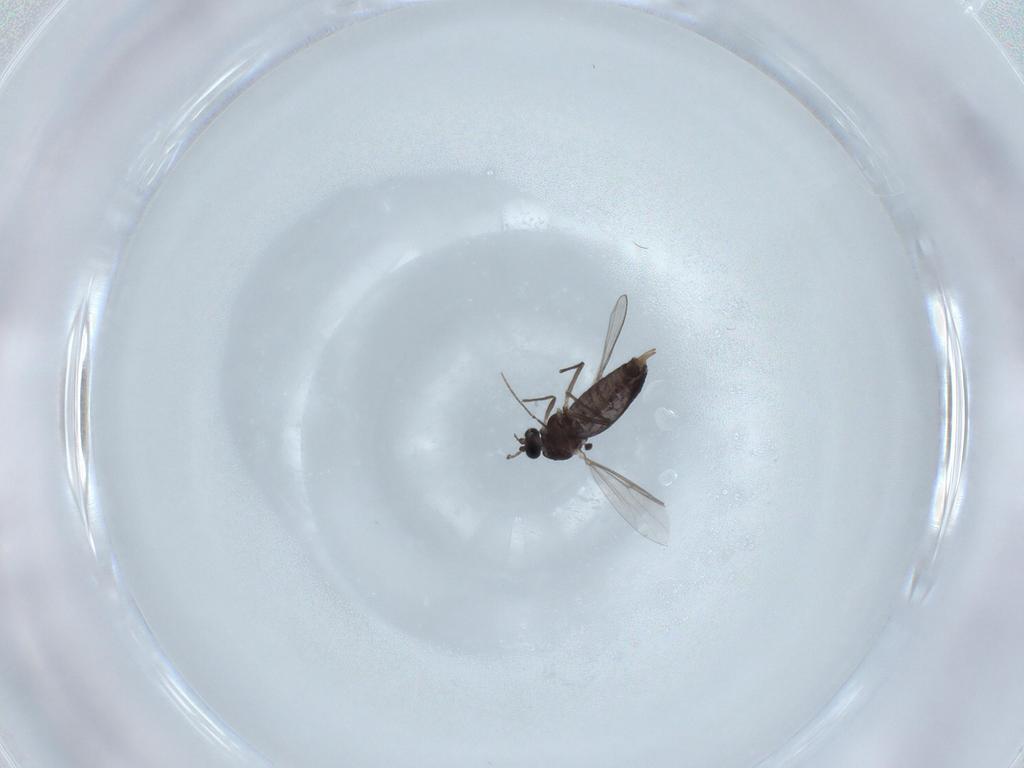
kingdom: Animalia
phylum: Arthropoda
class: Insecta
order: Diptera
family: Chironomidae
